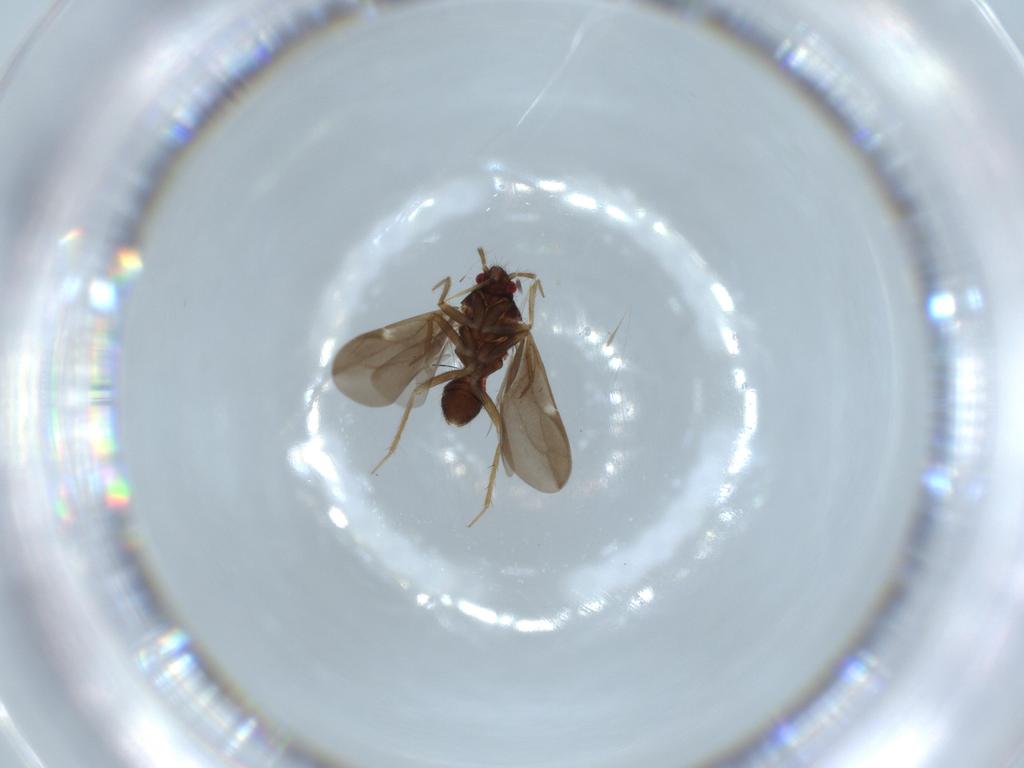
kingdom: Animalia
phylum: Arthropoda
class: Insecta
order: Hemiptera
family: Ceratocombidae
